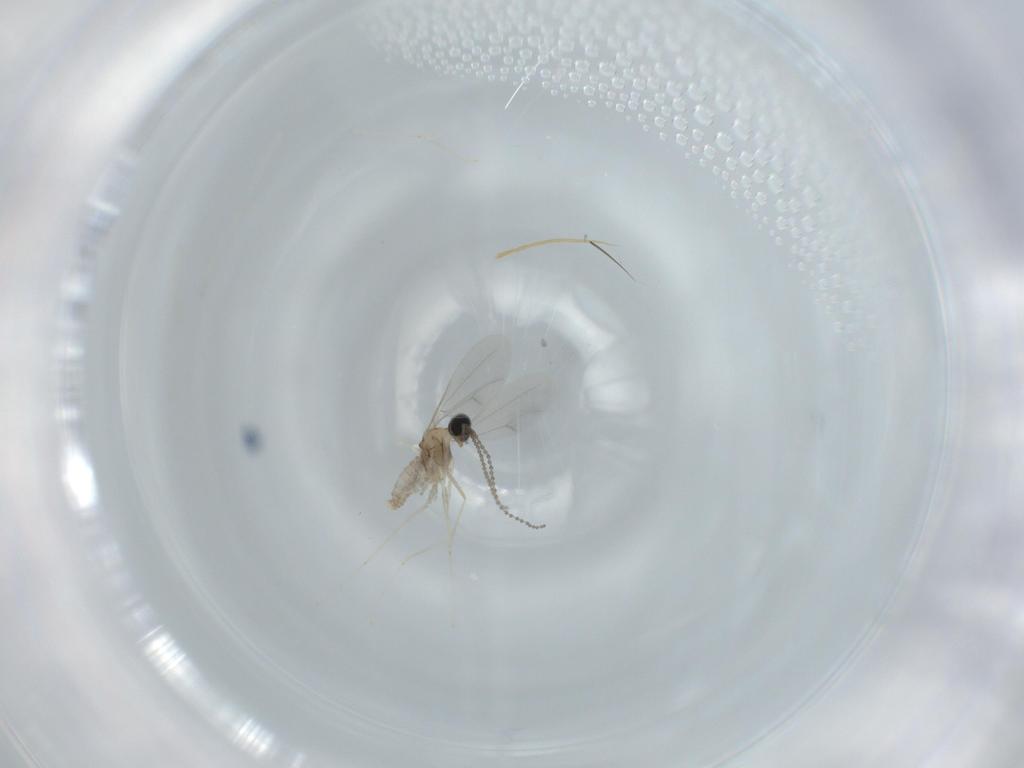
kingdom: Animalia
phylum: Arthropoda
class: Insecta
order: Diptera
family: Cecidomyiidae
